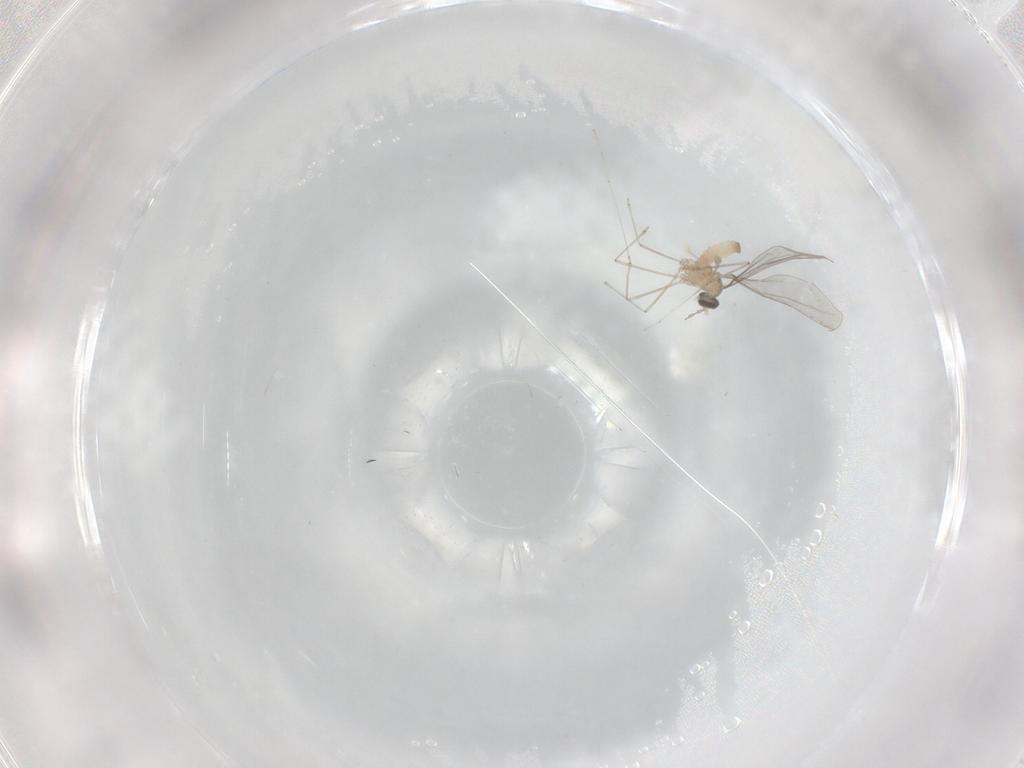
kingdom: Animalia
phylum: Arthropoda
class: Insecta
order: Diptera
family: Cecidomyiidae
